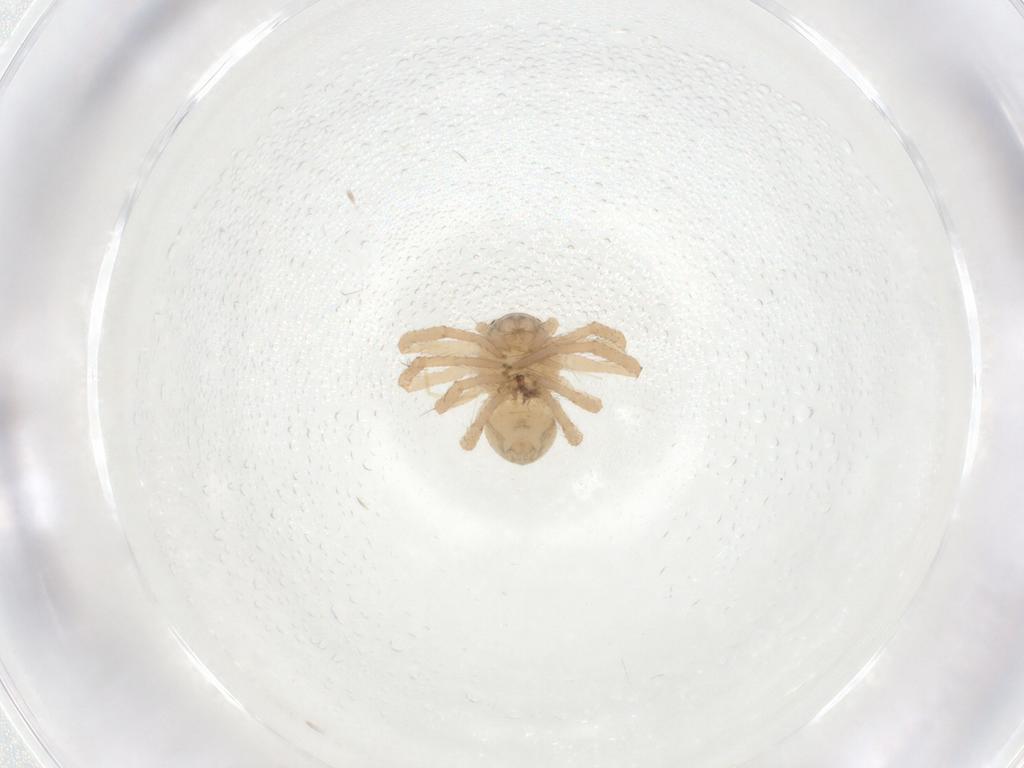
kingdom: Animalia
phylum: Arthropoda
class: Arachnida
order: Araneae
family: Thomisidae
